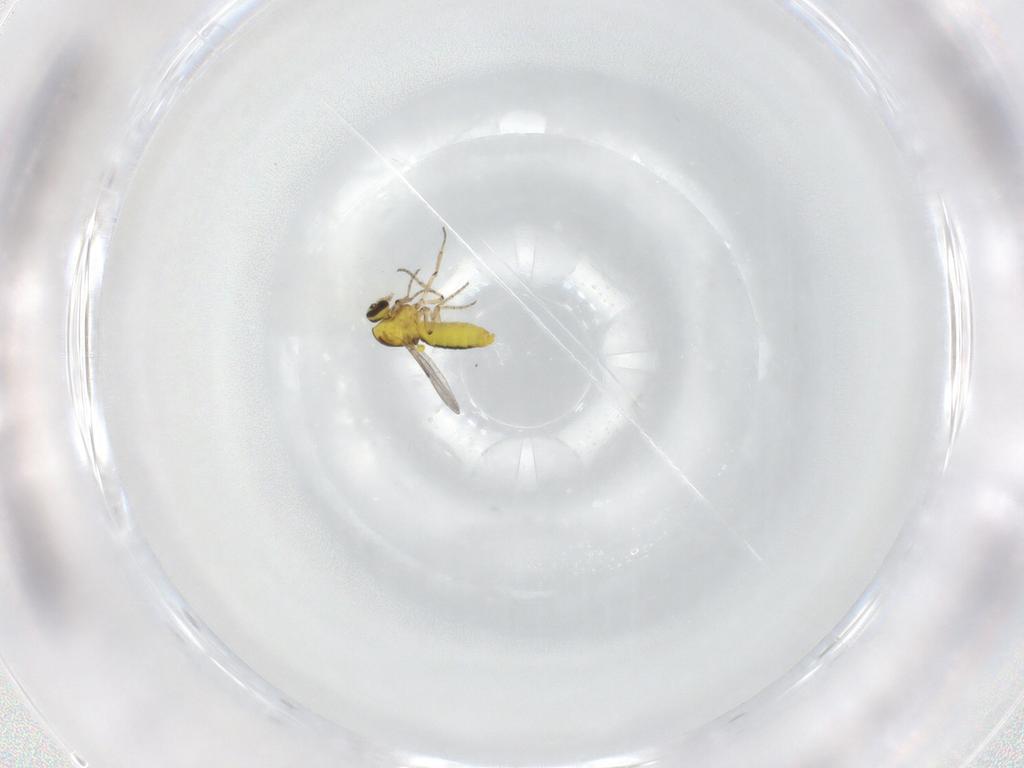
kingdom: Animalia
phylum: Arthropoda
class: Insecta
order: Diptera
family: Ceratopogonidae
